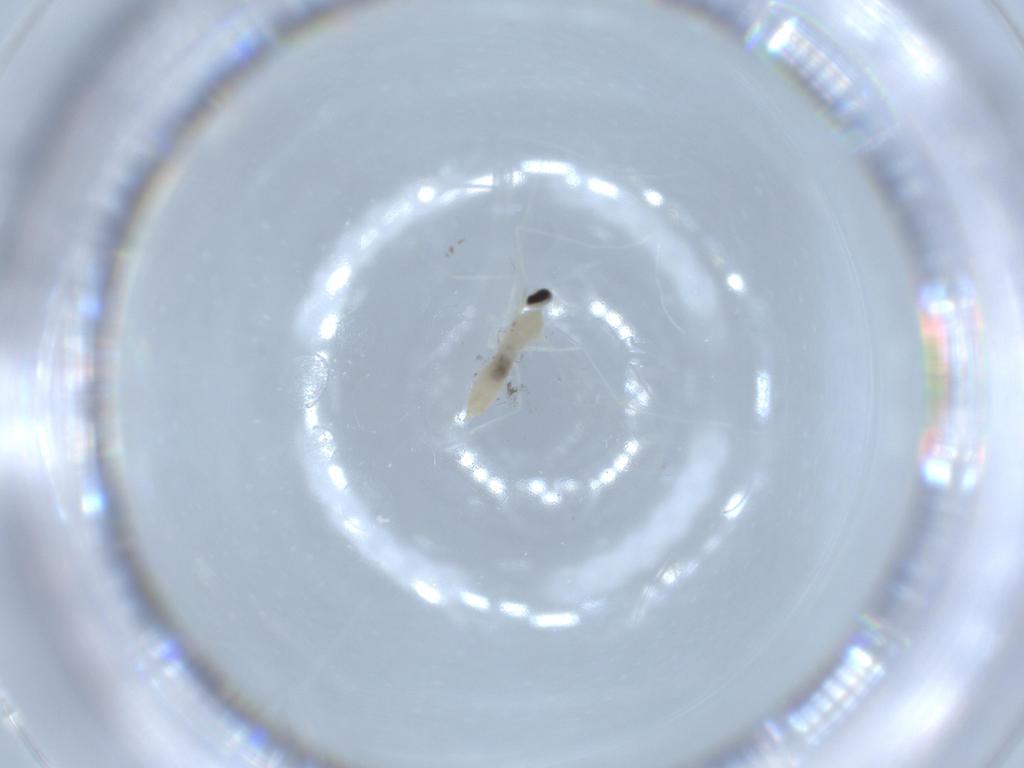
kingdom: Animalia
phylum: Arthropoda
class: Insecta
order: Diptera
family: Cecidomyiidae
